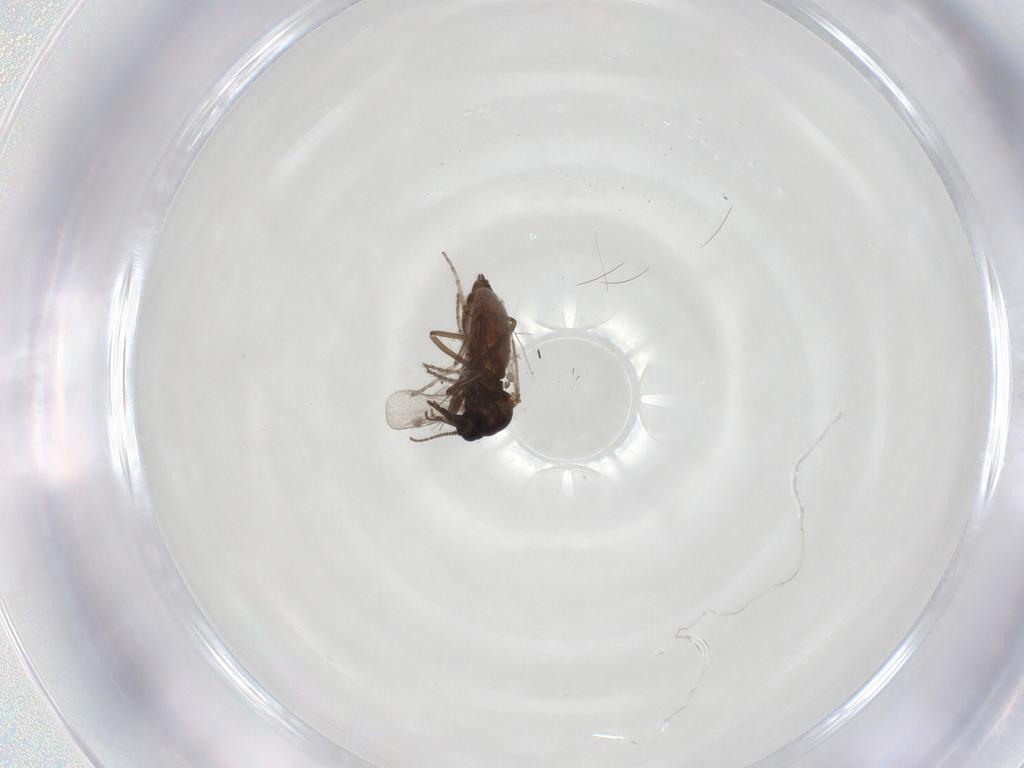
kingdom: Animalia
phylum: Arthropoda
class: Insecta
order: Diptera
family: Ceratopogonidae
